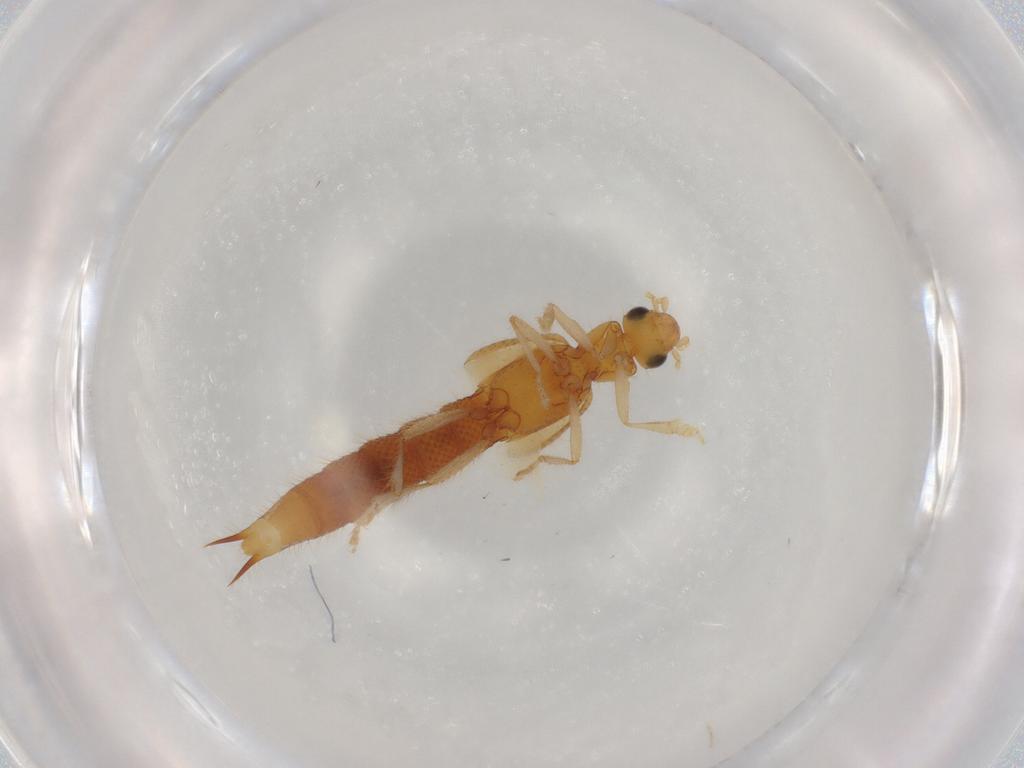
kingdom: Animalia
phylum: Arthropoda
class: Insecta
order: Coleoptera
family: Staphylinidae
